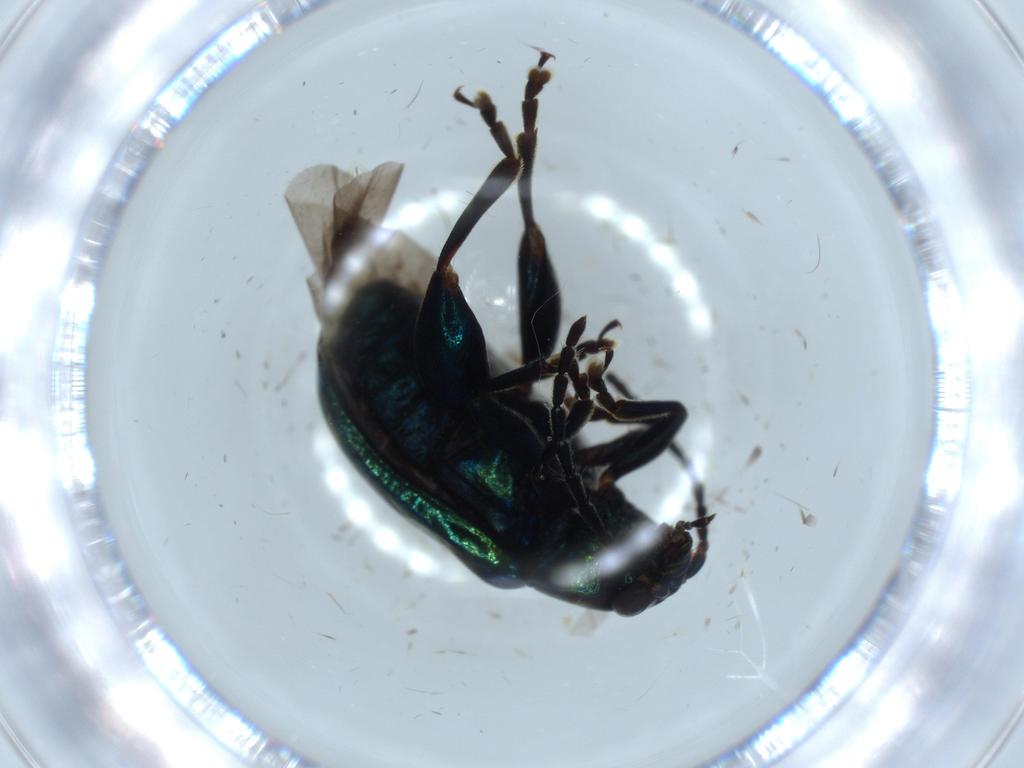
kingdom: Animalia
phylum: Arthropoda
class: Insecta
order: Coleoptera
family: Chrysomelidae
